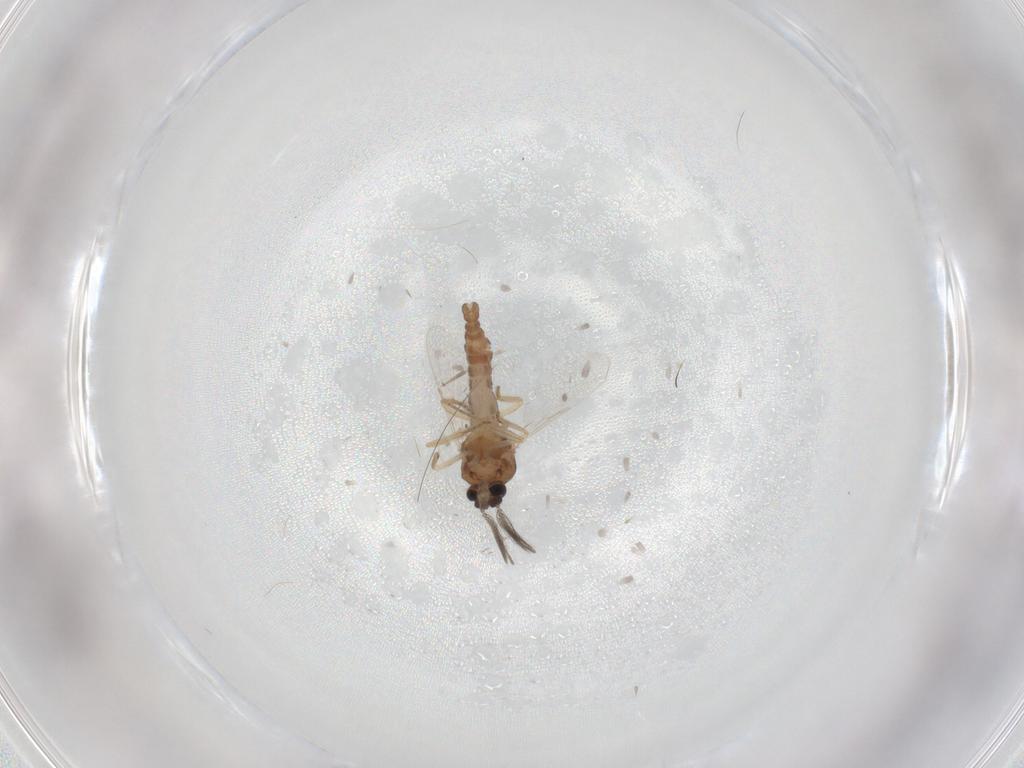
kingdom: Animalia
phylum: Arthropoda
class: Insecta
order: Diptera
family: Ceratopogonidae
